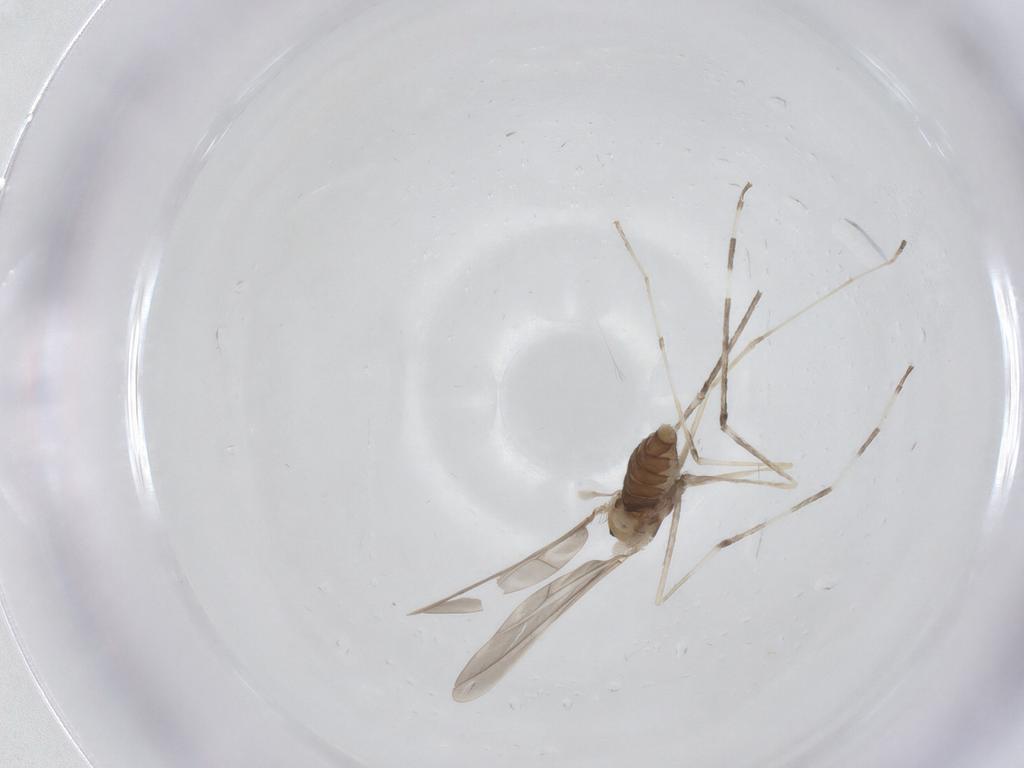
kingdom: Animalia
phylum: Arthropoda
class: Insecta
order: Diptera
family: Cecidomyiidae
